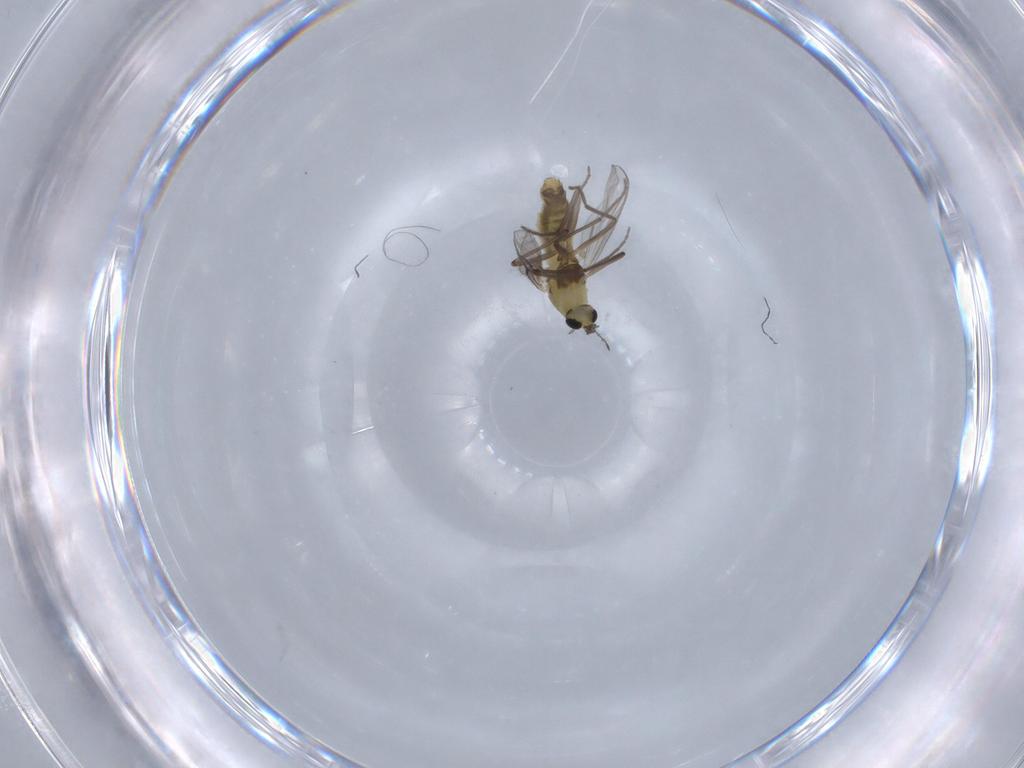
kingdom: Animalia
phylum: Arthropoda
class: Insecta
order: Diptera
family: Chironomidae
